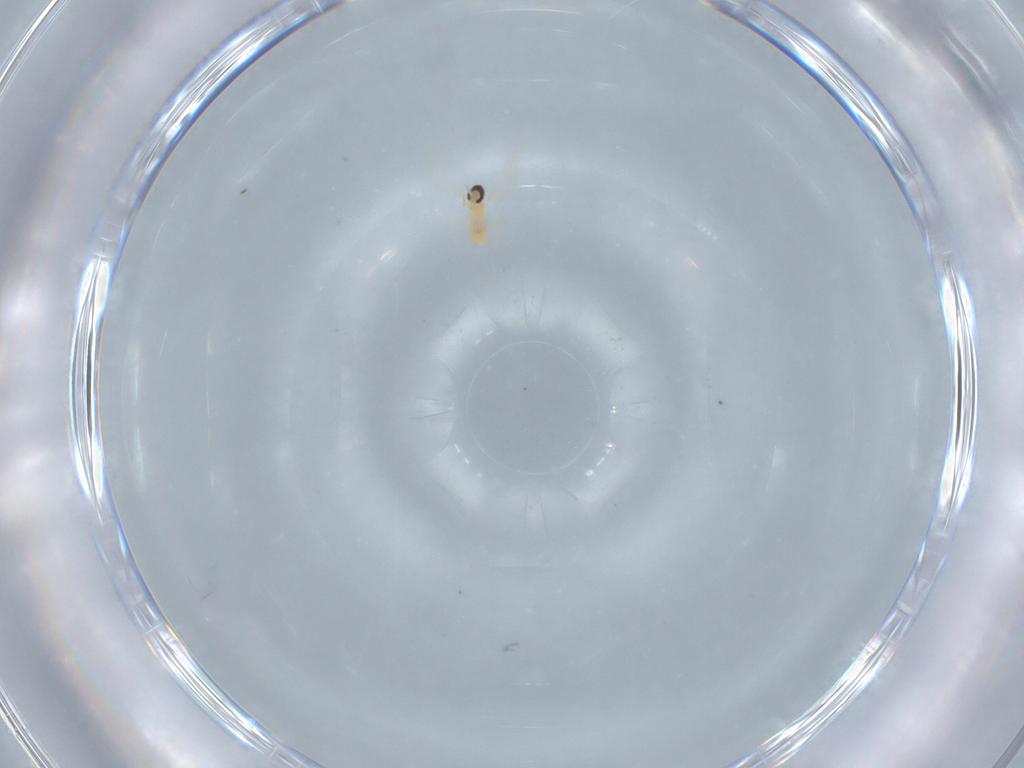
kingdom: Animalia
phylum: Arthropoda
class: Insecta
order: Diptera
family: Cecidomyiidae
